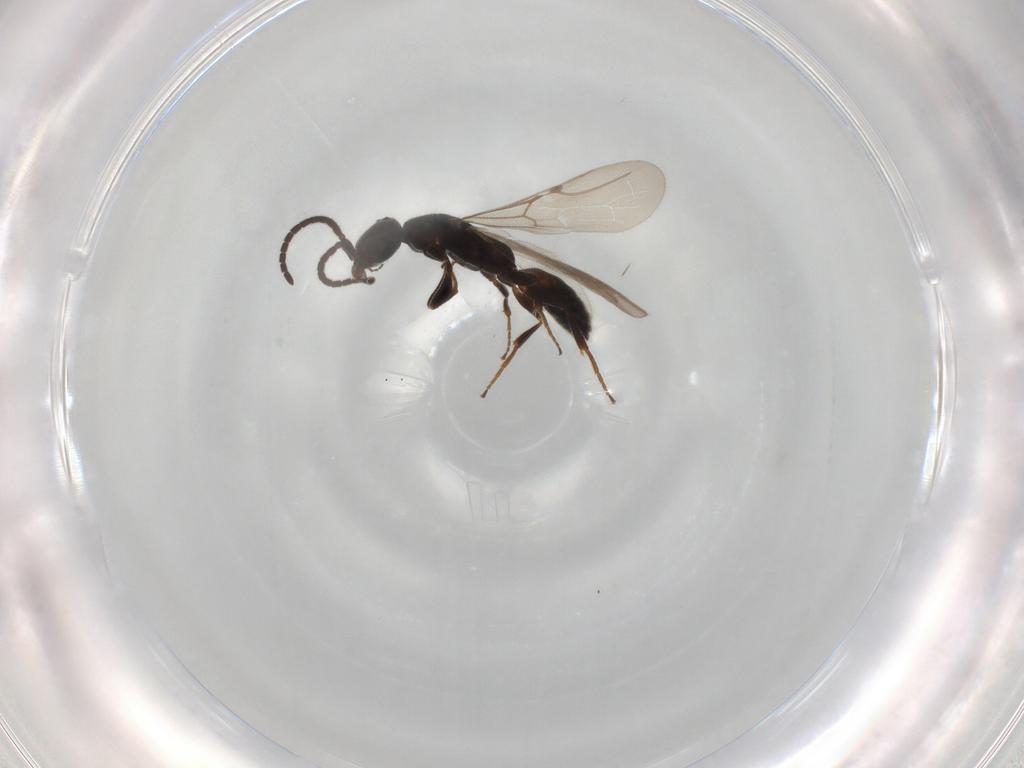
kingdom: Animalia
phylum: Arthropoda
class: Insecta
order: Hymenoptera
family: Eulophidae
